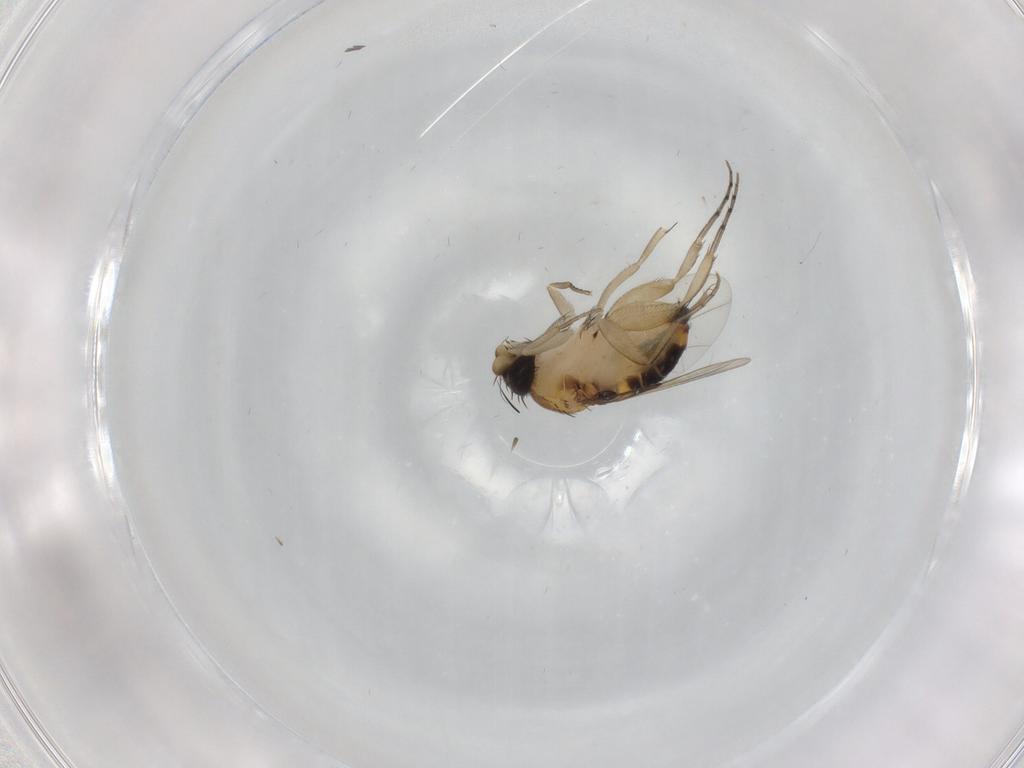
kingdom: Animalia
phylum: Arthropoda
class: Insecta
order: Diptera
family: Phoridae
